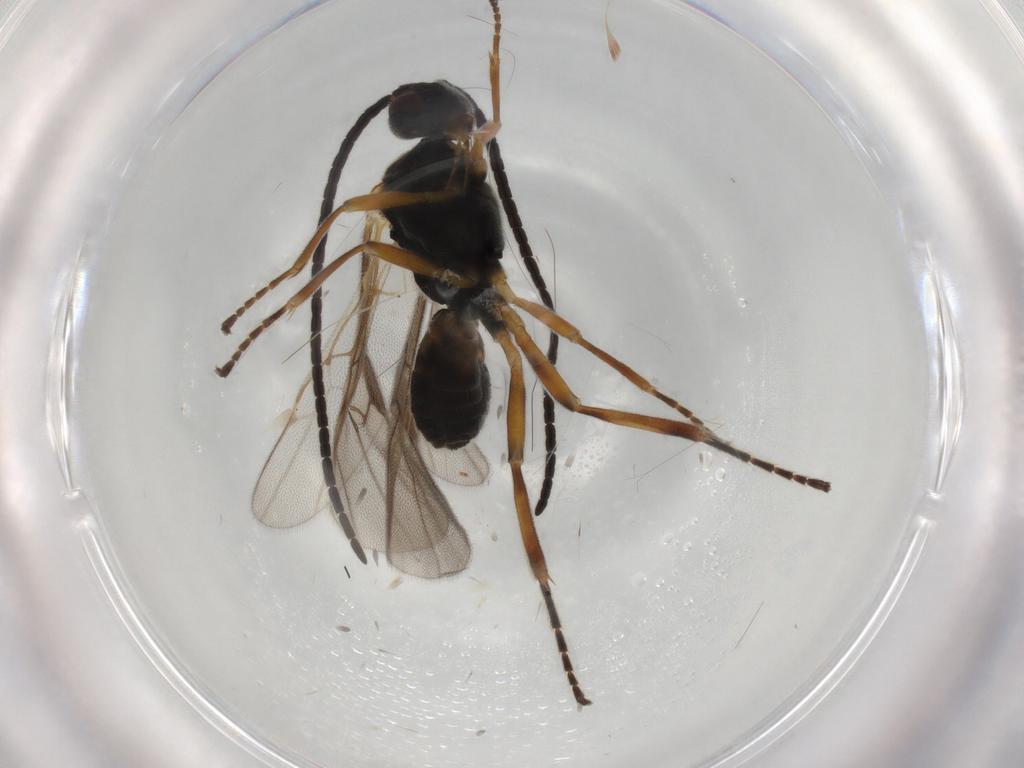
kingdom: Animalia
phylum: Arthropoda
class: Insecta
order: Hymenoptera
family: Braconidae
